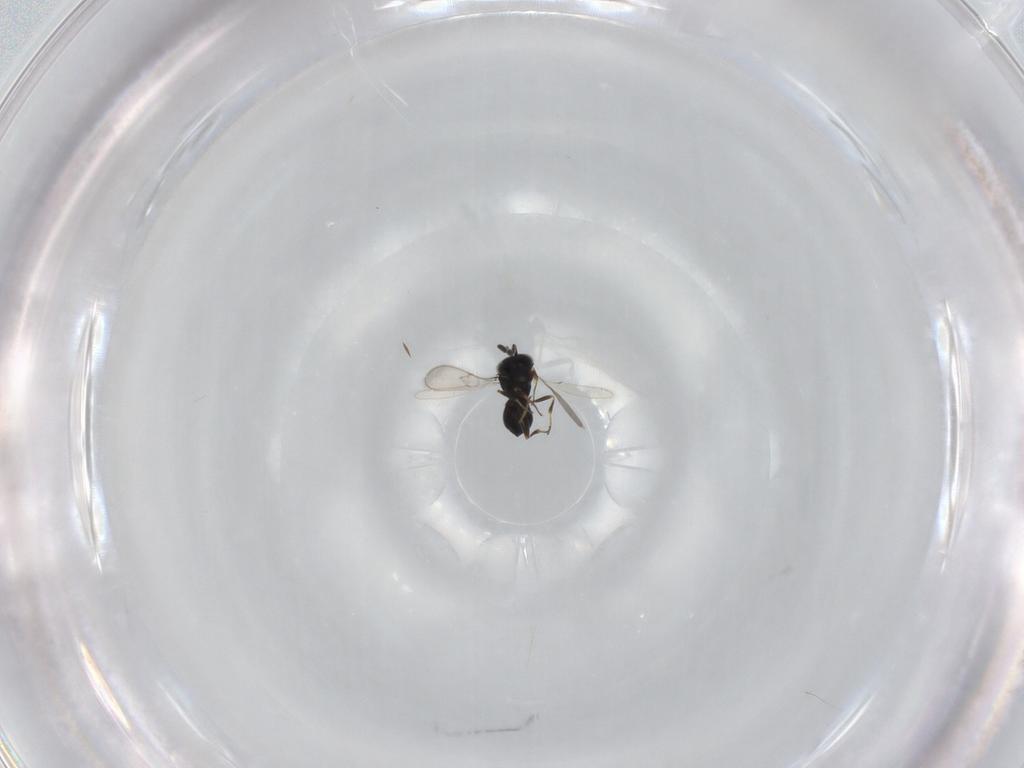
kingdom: Animalia
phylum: Arthropoda
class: Insecta
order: Hymenoptera
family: Scelionidae
